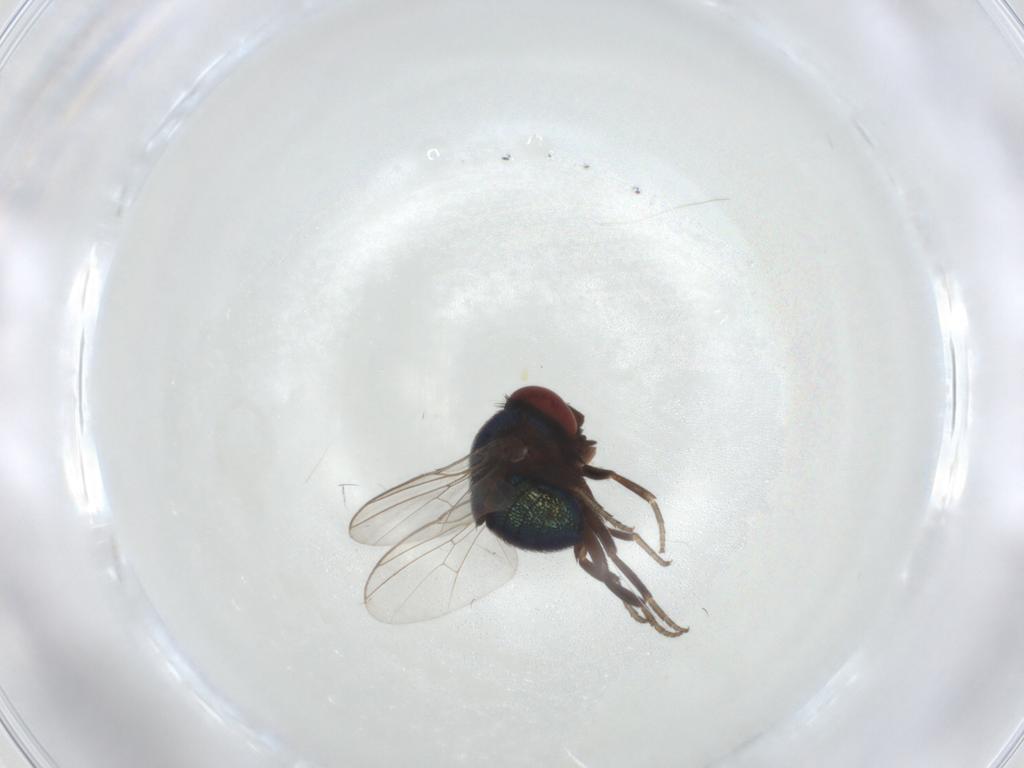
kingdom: Animalia
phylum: Arthropoda
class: Insecta
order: Diptera
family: Cryptochetidae
